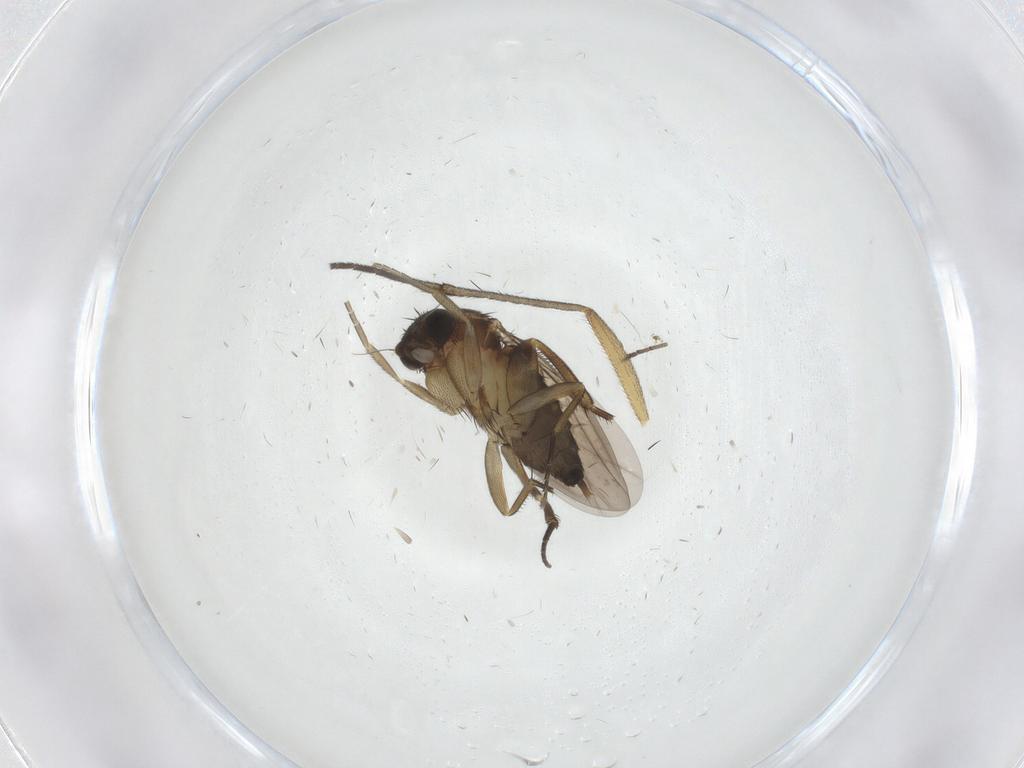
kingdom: Animalia
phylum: Arthropoda
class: Insecta
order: Diptera
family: Phoridae
